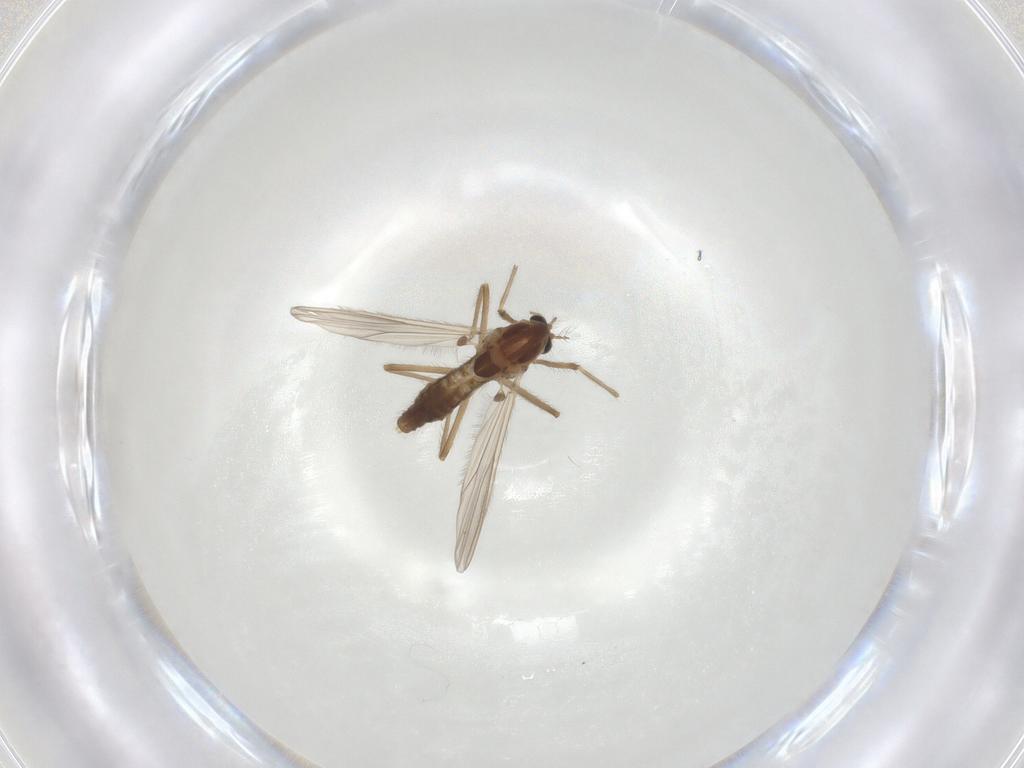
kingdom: Animalia
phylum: Arthropoda
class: Insecta
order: Diptera
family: Chironomidae
